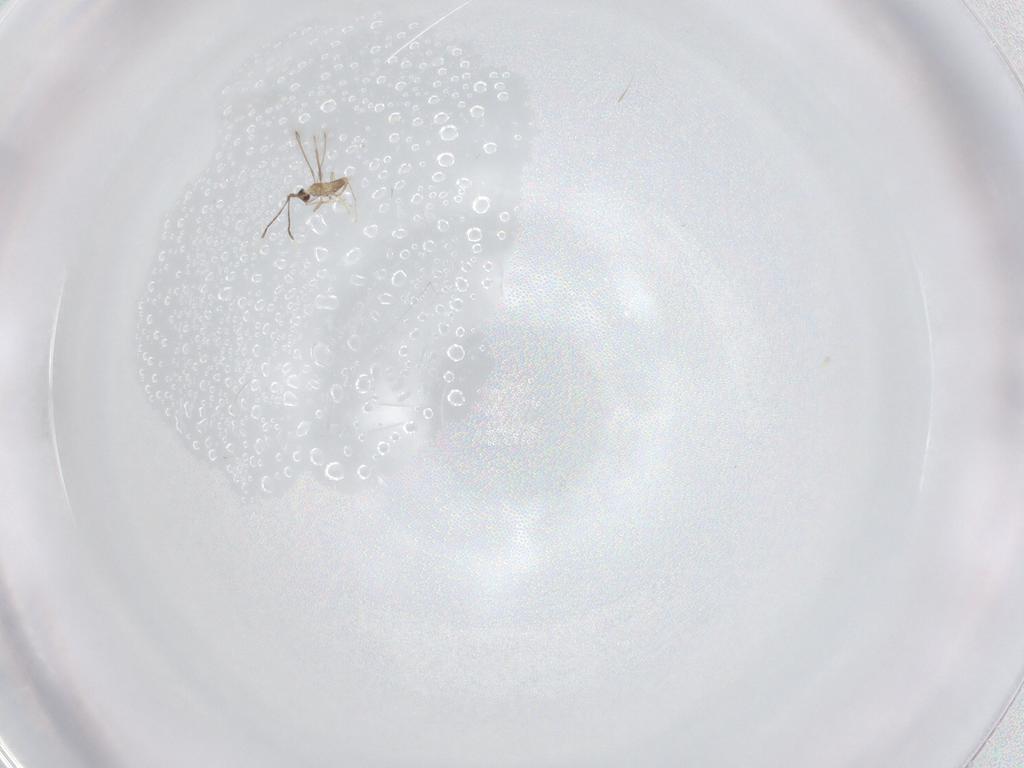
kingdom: Animalia
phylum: Arthropoda
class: Insecta
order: Hymenoptera
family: Mymaridae
